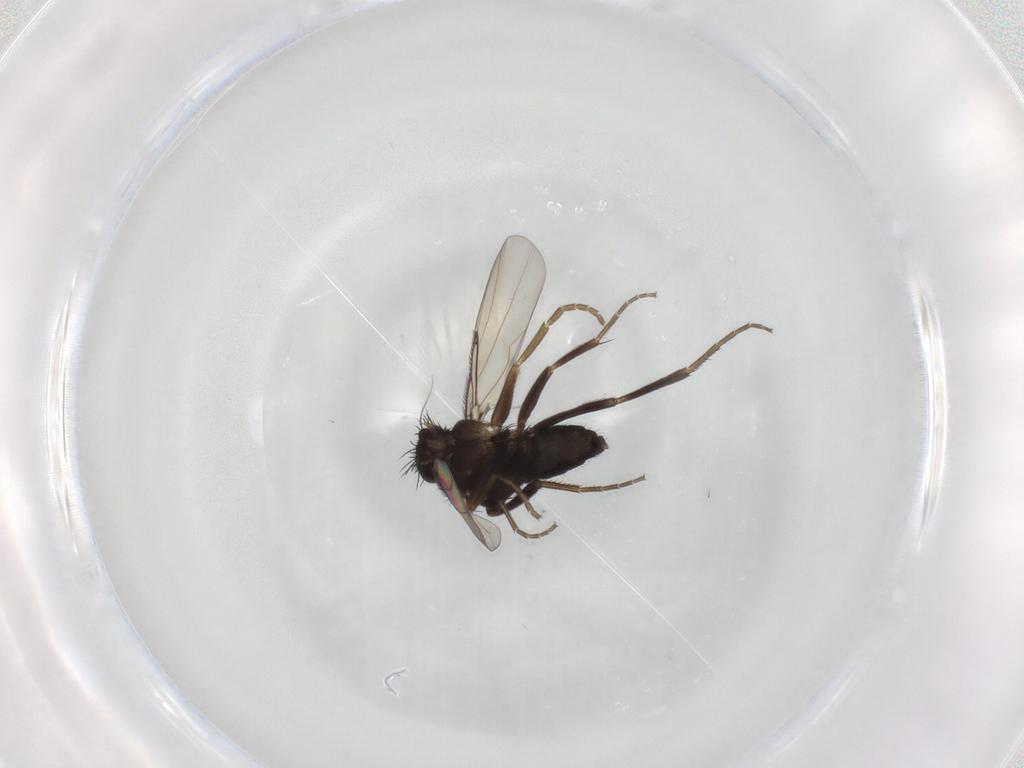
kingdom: Animalia
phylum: Arthropoda
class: Insecta
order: Diptera
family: Phoridae
